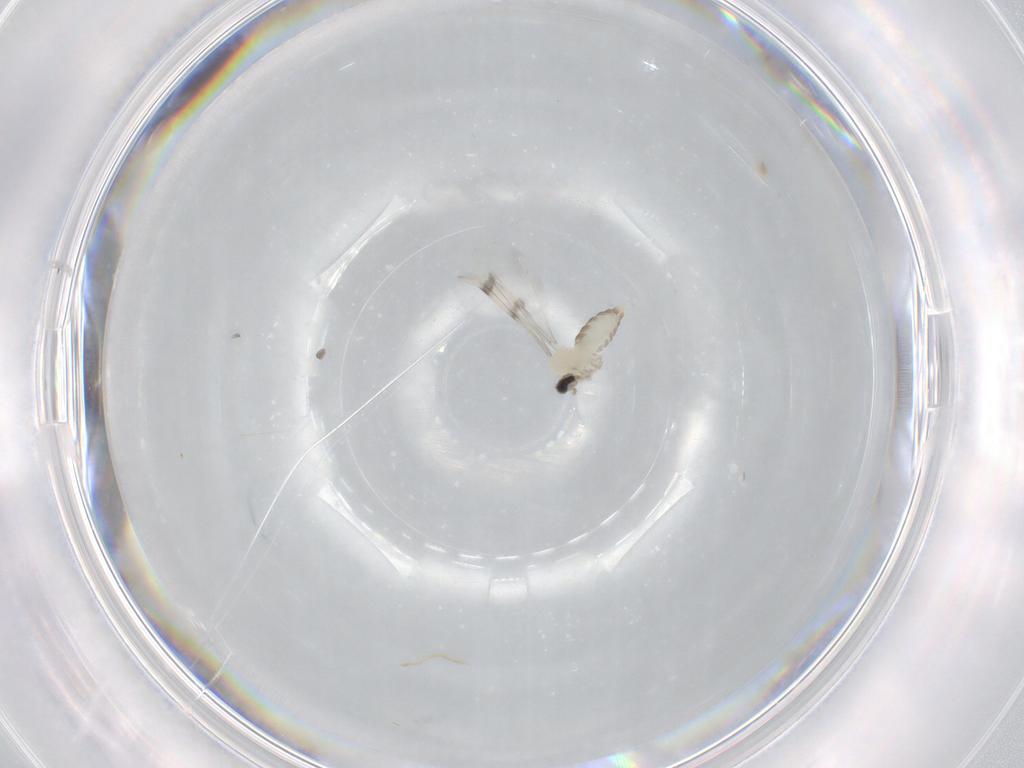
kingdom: Animalia
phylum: Arthropoda
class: Insecta
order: Diptera
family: Cecidomyiidae
